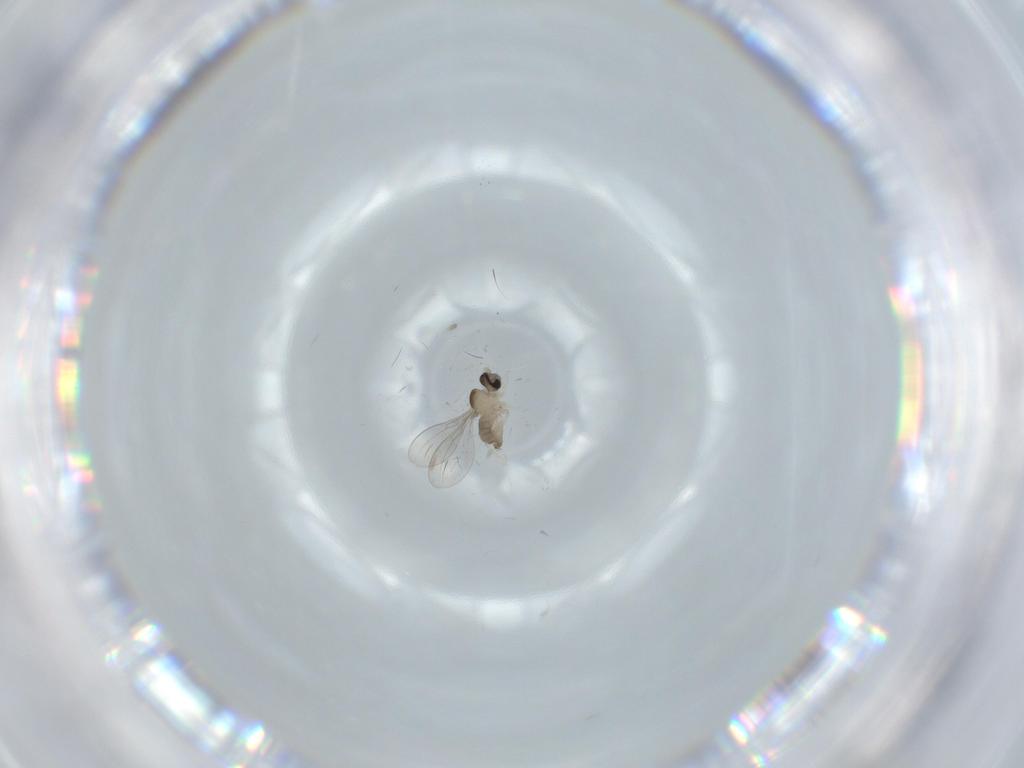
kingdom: Animalia
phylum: Arthropoda
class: Insecta
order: Diptera
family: Cecidomyiidae
